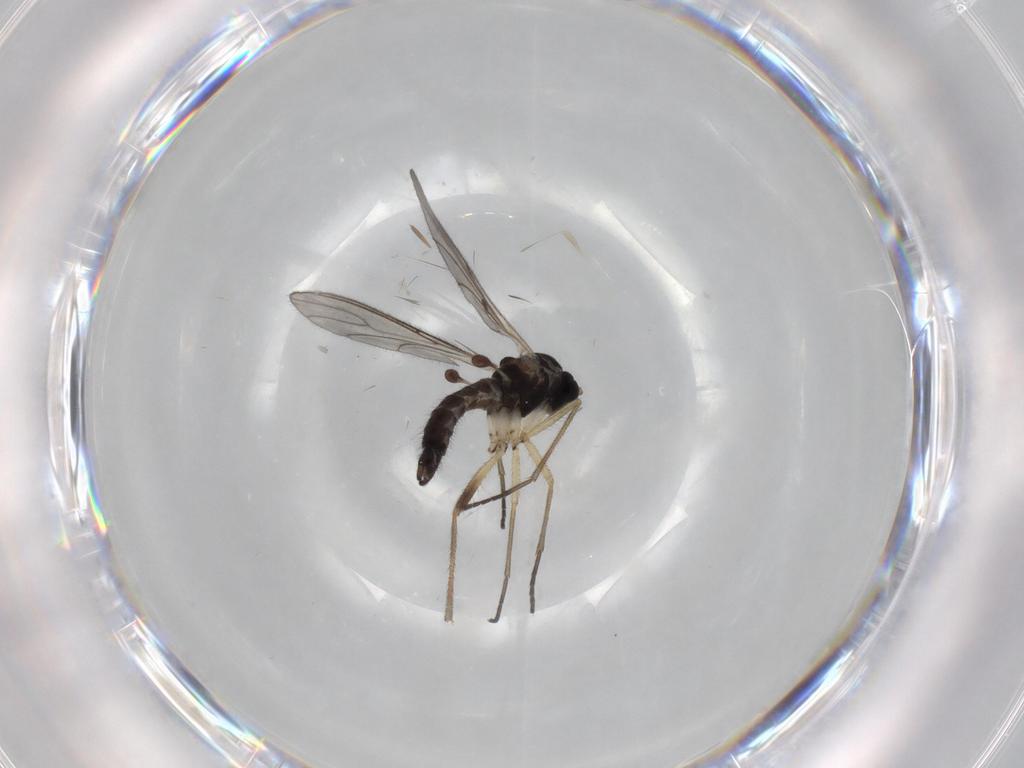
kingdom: Animalia
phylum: Arthropoda
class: Insecta
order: Diptera
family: Sciaridae
